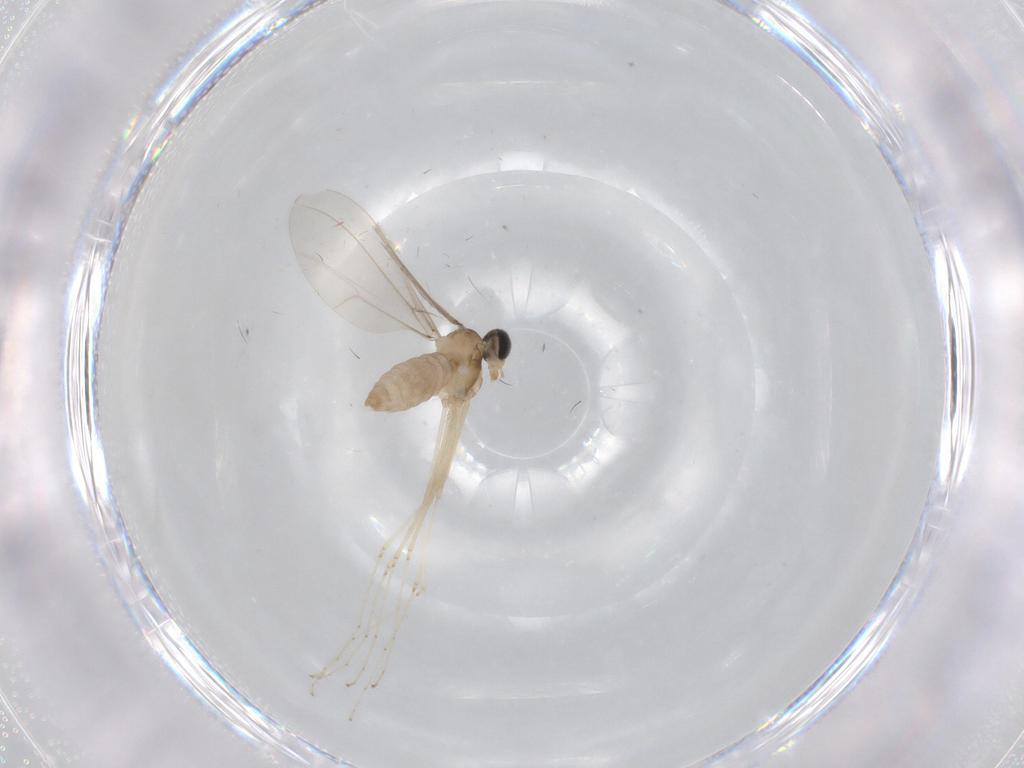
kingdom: Animalia
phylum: Arthropoda
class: Insecta
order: Diptera
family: Cecidomyiidae
